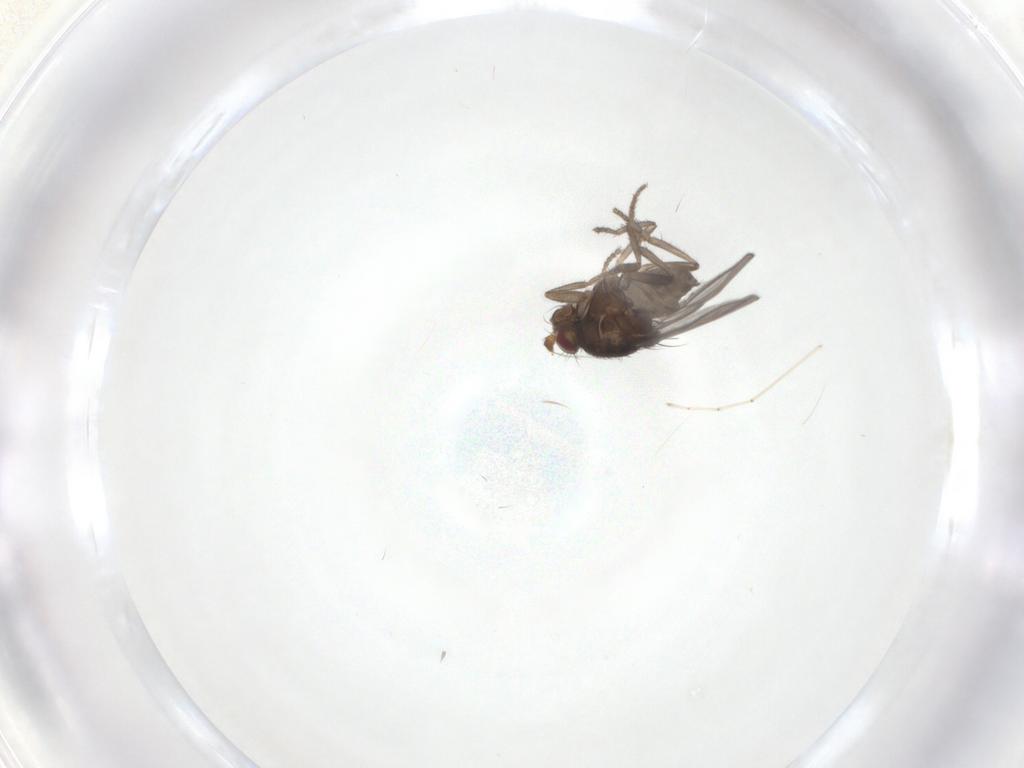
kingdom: Animalia
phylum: Arthropoda
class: Insecta
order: Diptera
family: Sphaeroceridae
